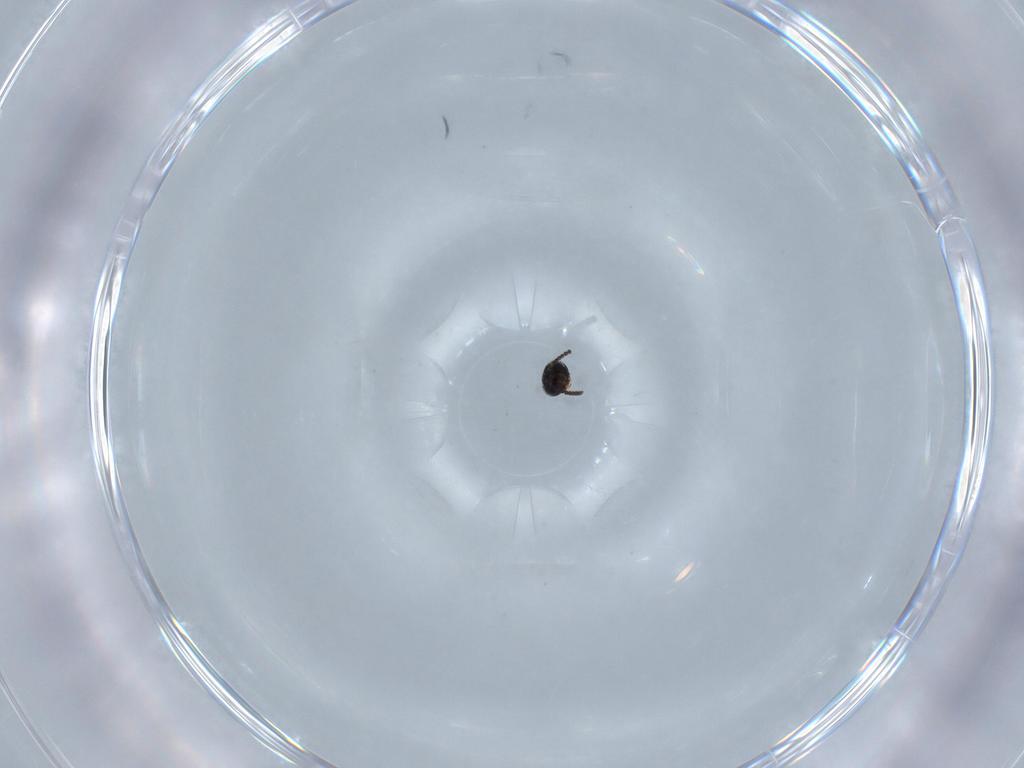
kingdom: Animalia
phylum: Arthropoda
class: Insecta
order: Hymenoptera
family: Scelionidae
